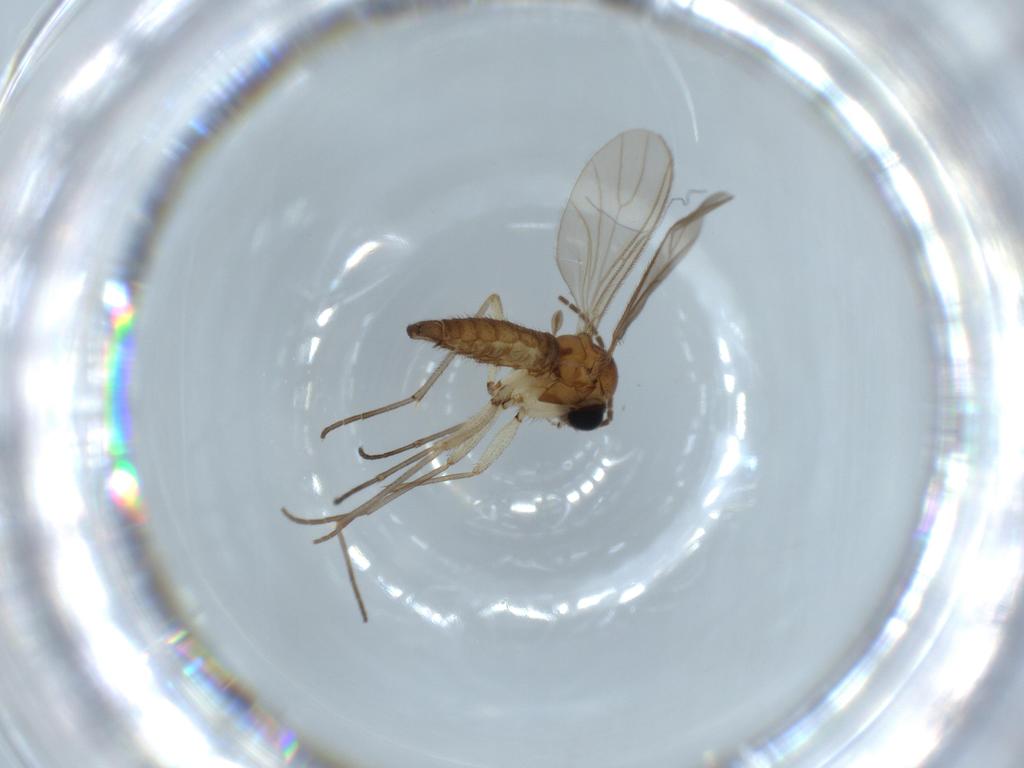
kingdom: Animalia
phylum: Arthropoda
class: Insecta
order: Diptera
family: Sciaridae
